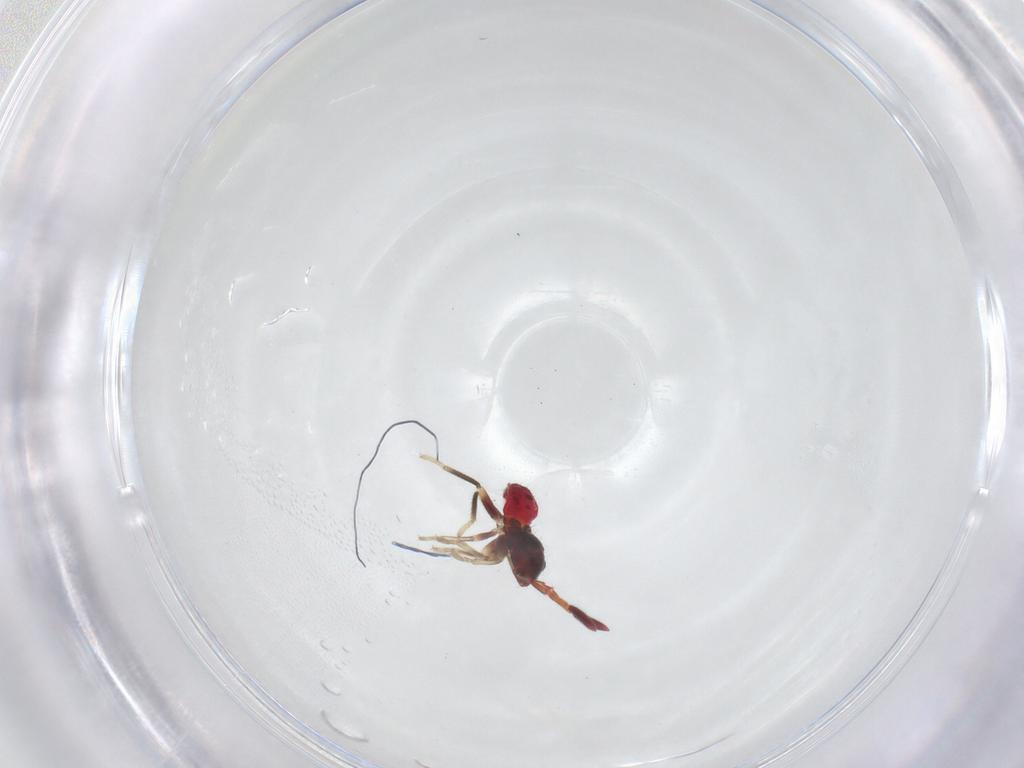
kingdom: Animalia
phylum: Arthropoda
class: Insecta
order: Hemiptera
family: Rhyparochromidae
